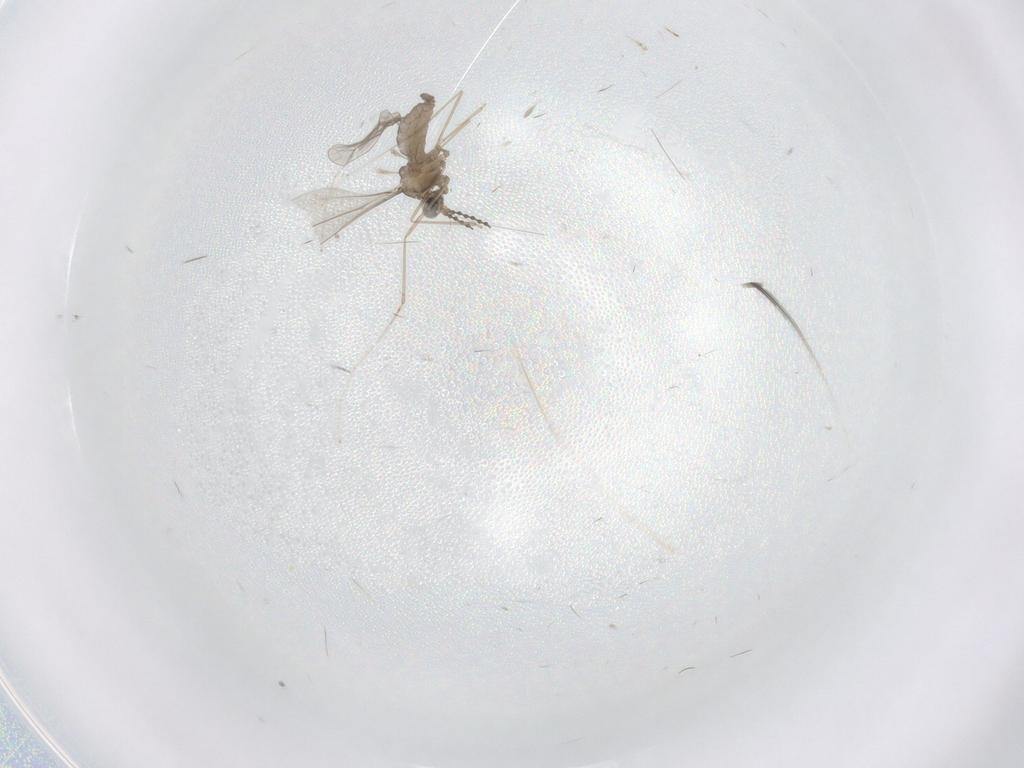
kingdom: Animalia
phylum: Arthropoda
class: Insecta
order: Diptera
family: Cecidomyiidae
